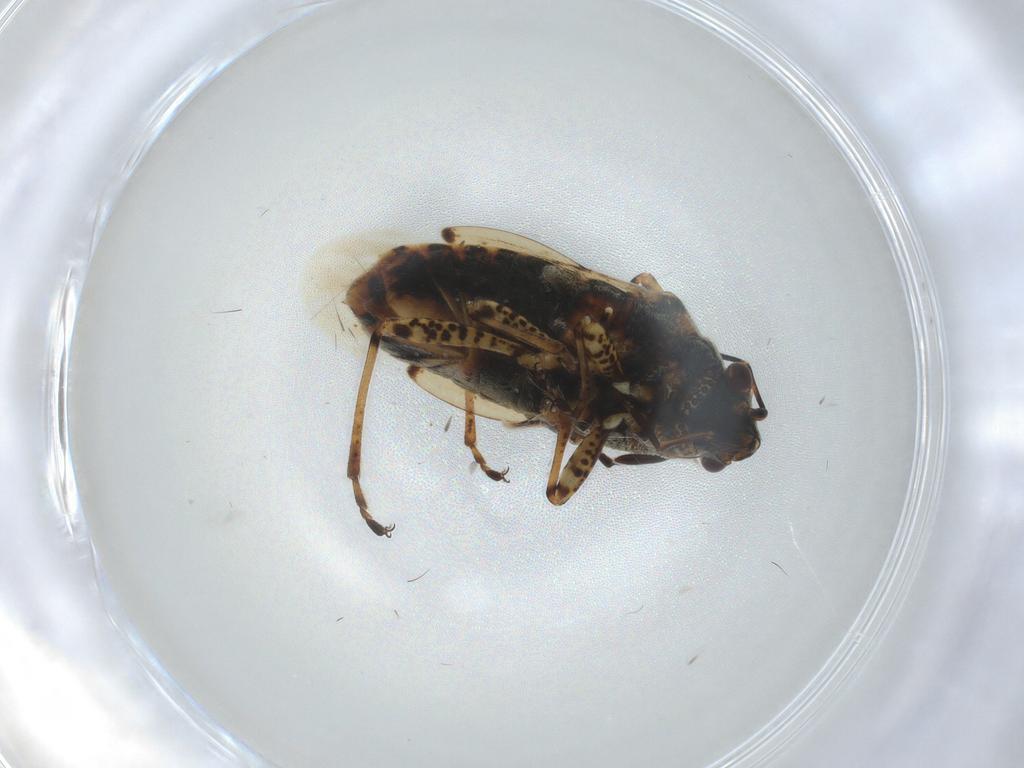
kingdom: Animalia
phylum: Arthropoda
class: Insecta
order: Hemiptera
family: Lygaeidae
